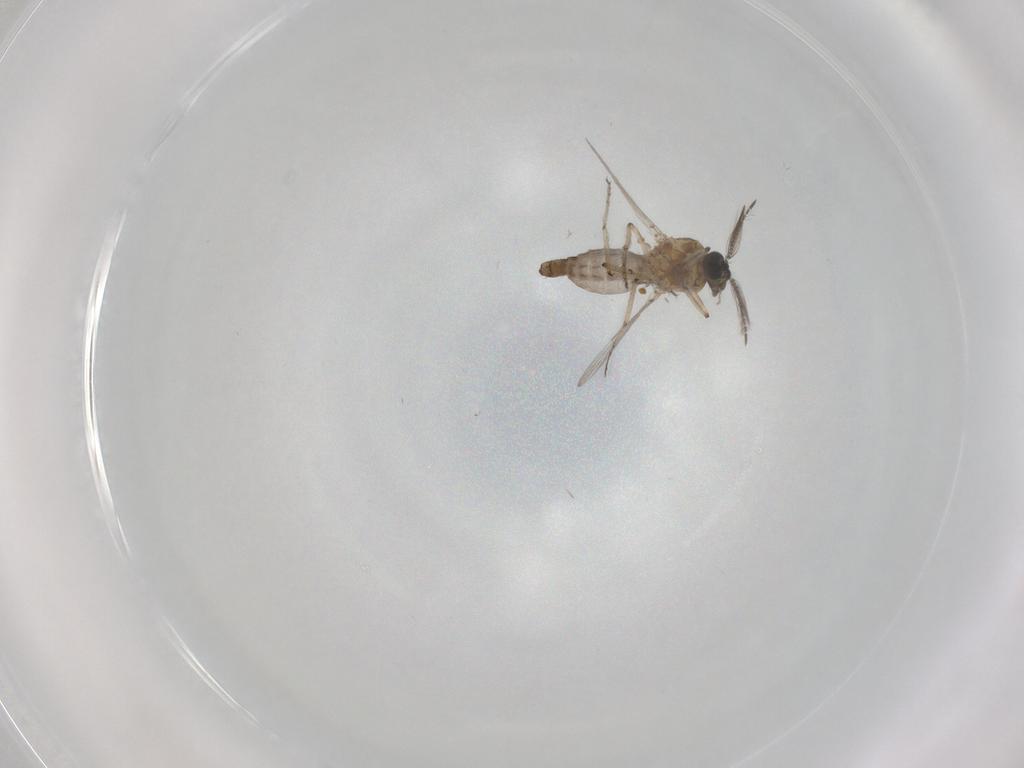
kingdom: Animalia
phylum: Arthropoda
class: Insecta
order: Diptera
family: Ceratopogonidae
